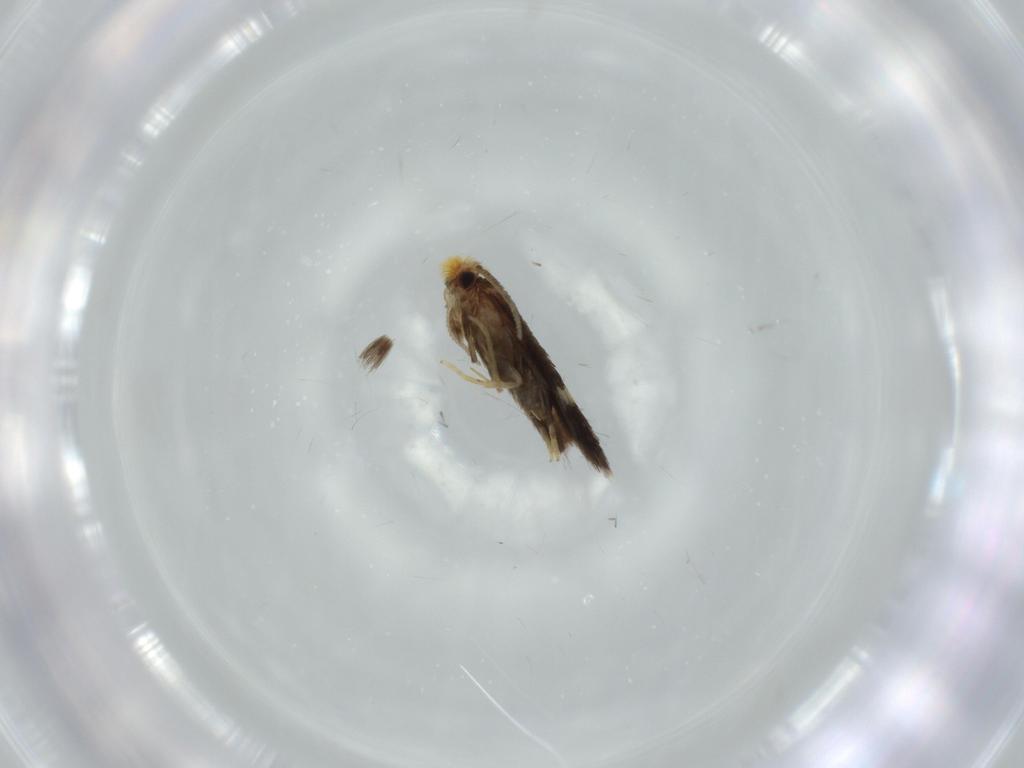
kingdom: Animalia
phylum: Arthropoda
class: Insecta
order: Lepidoptera
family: Nepticulidae
